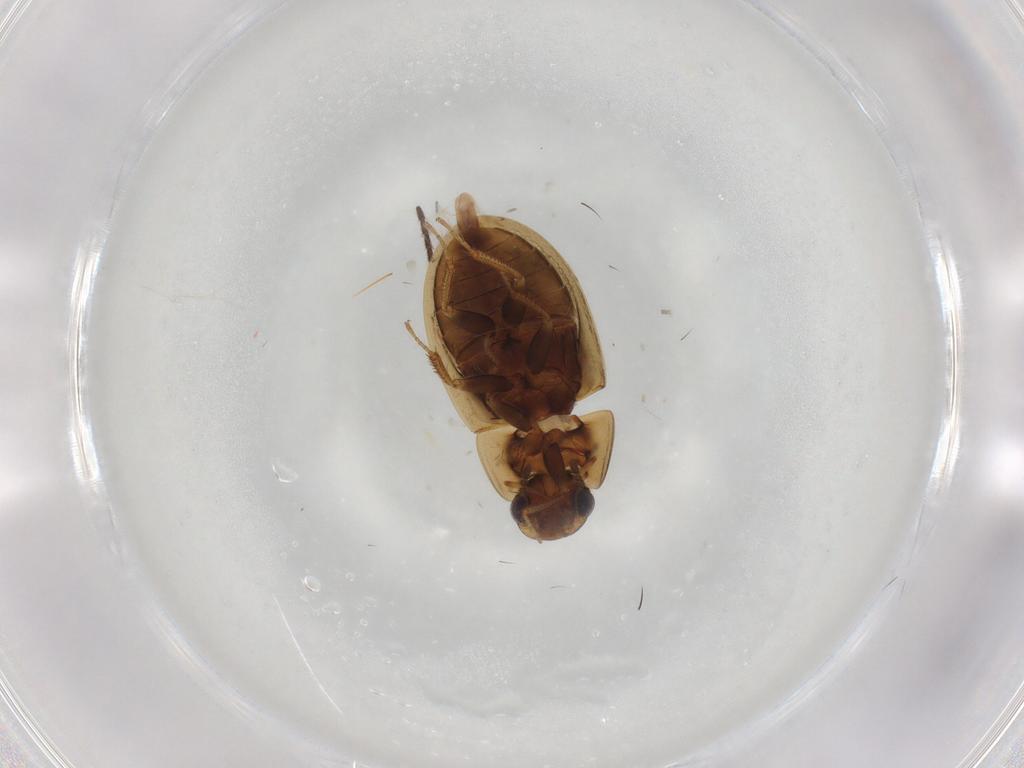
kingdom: Animalia
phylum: Arthropoda
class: Insecta
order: Coleoptera
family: Hydrophilidae
